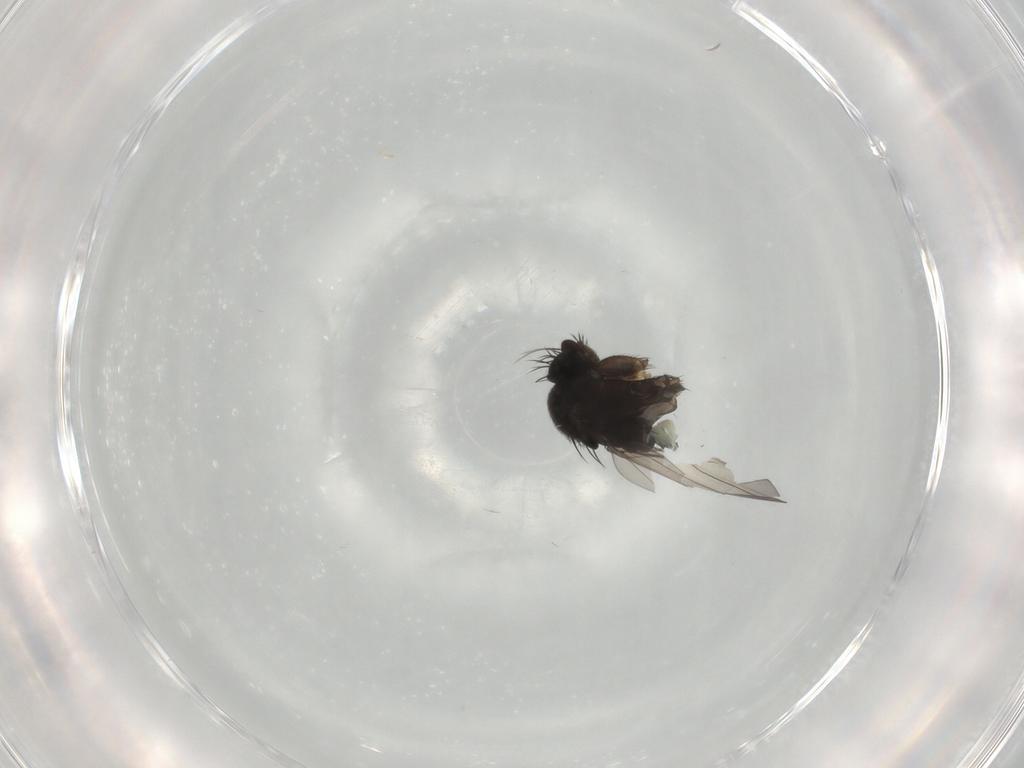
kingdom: Animalia
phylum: Arthropoda
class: Insecta
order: Diptera
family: Phoridae
